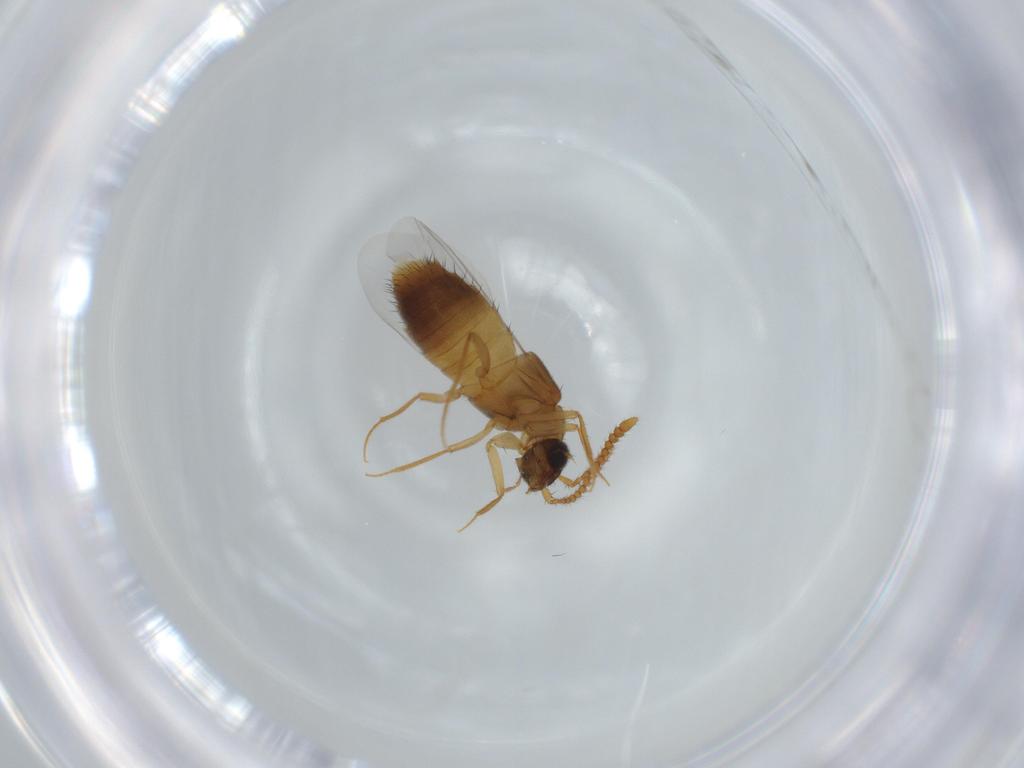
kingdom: Animalia
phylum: Arthropoda
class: Insecta
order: Coleoptera
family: Staphylinidae
